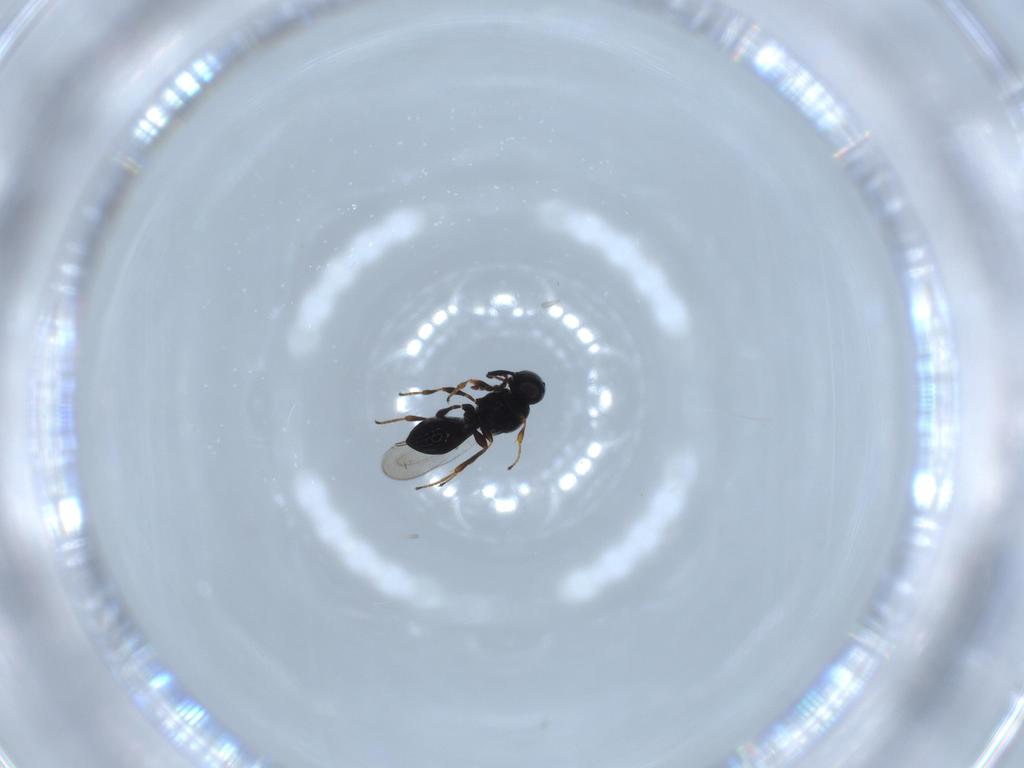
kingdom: Animalia
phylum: Arthropoda
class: Insecta
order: Hymenoptera
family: Platygastridae
